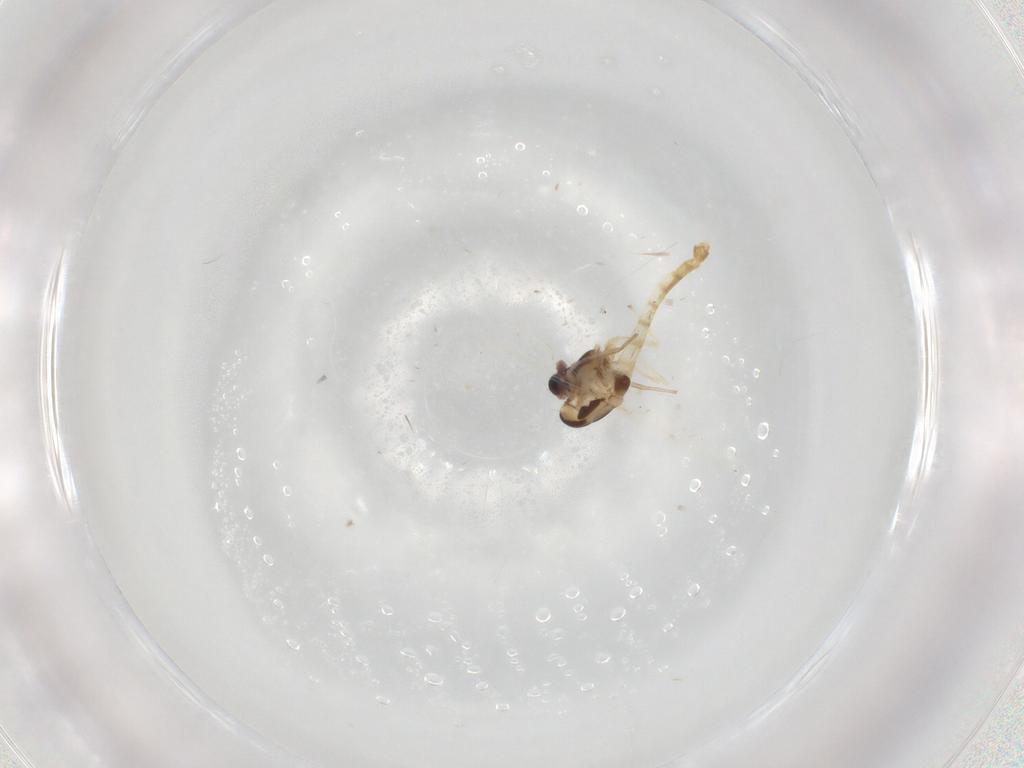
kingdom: Animalia
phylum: Arthropoda
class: Insecta
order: Diptera
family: Chironomidae
